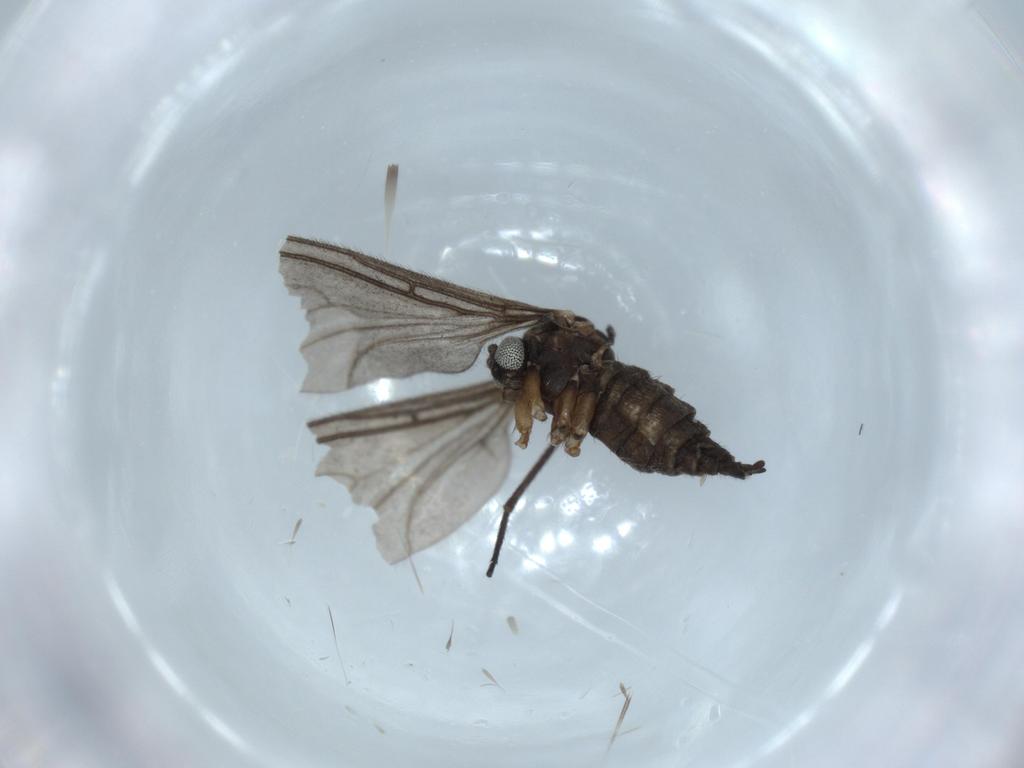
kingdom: Animalia
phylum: Arthropoda
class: Insecta
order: Diptera
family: Sciaridae
